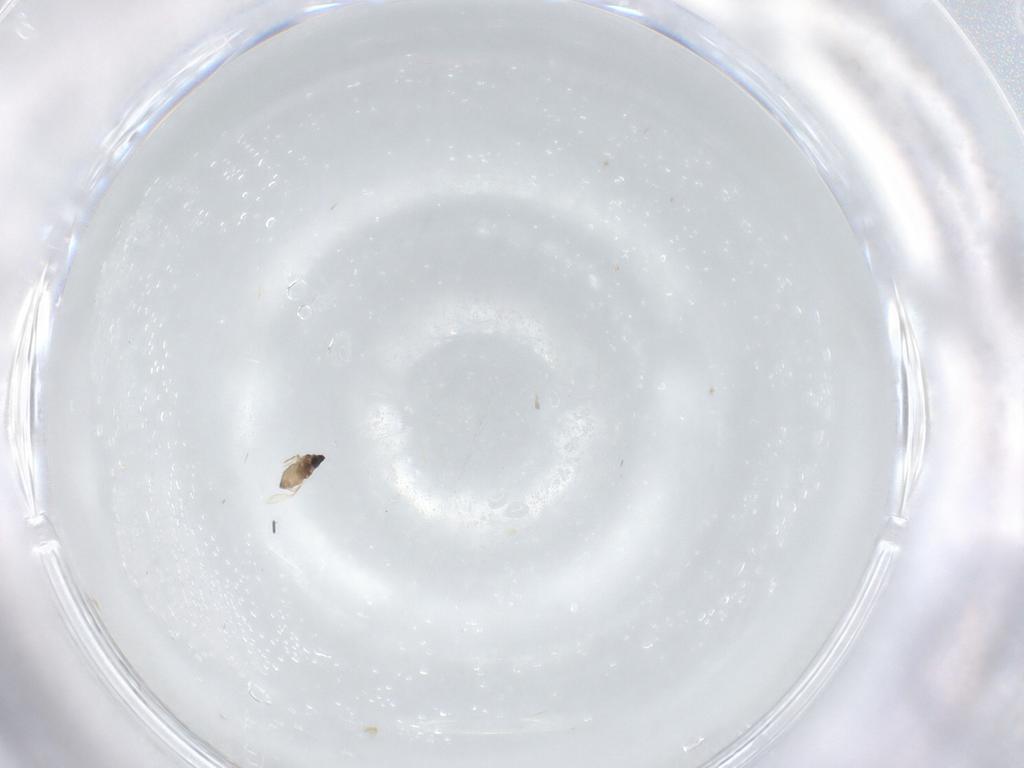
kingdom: Animalia
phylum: Arthropoda
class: Insecta
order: Diptera
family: Cecidomyiidae
